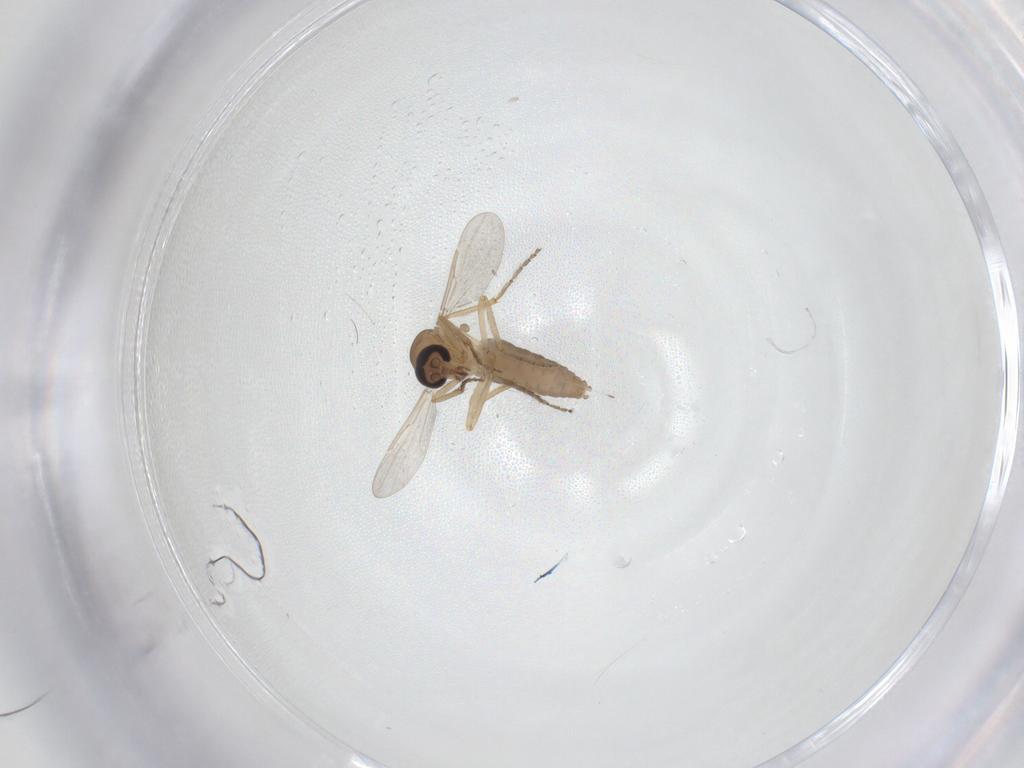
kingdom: Animalia
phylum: Arthropoda
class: Insecta
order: Diptera
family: Ceratopogonidae
